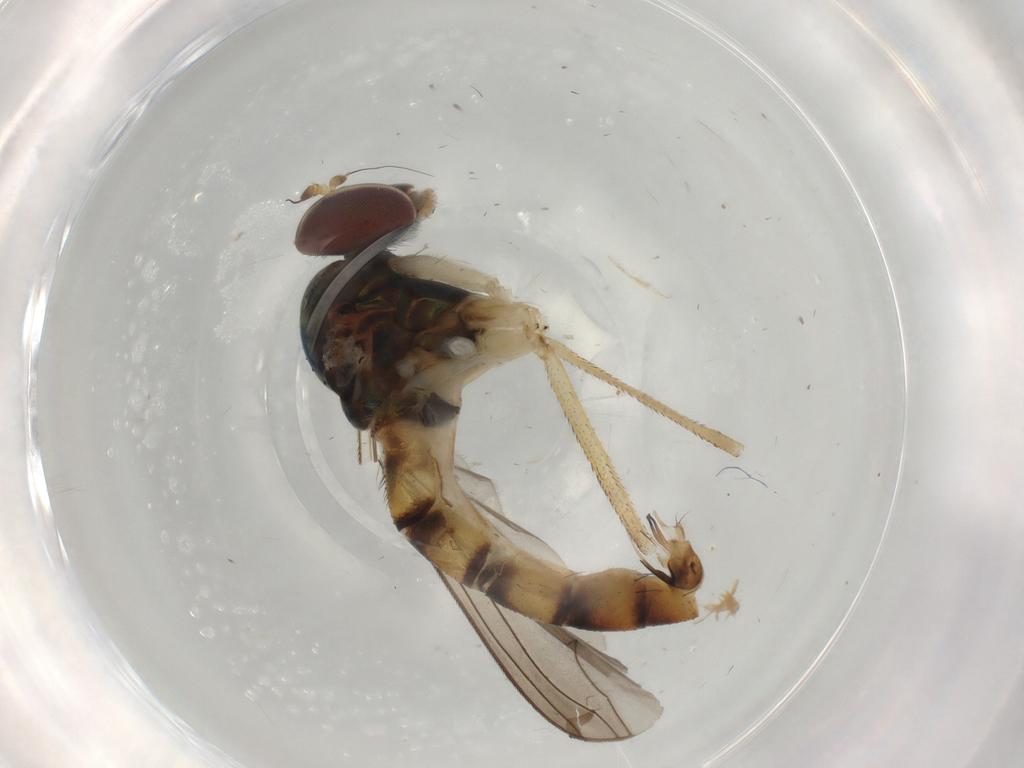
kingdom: Animalia
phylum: Arthropoda
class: Insecta
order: Diptera
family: Dolichopodidae
